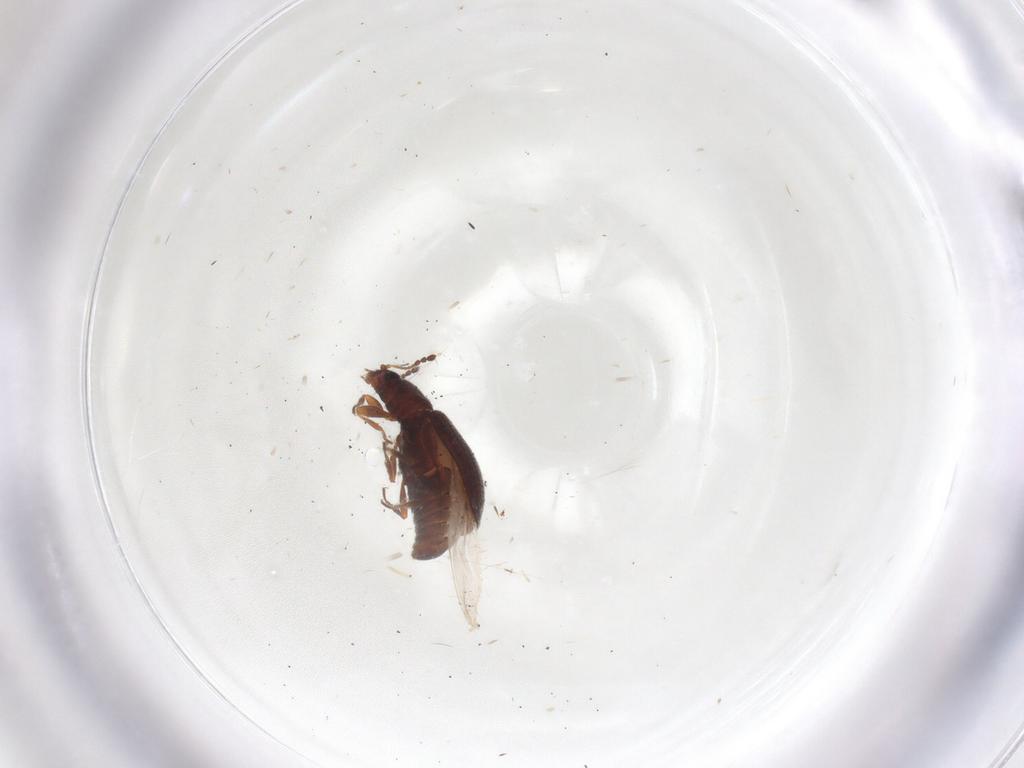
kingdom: Animalia
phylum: Arthropoda
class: Insecta
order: Coleoptera
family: Latridiidae
